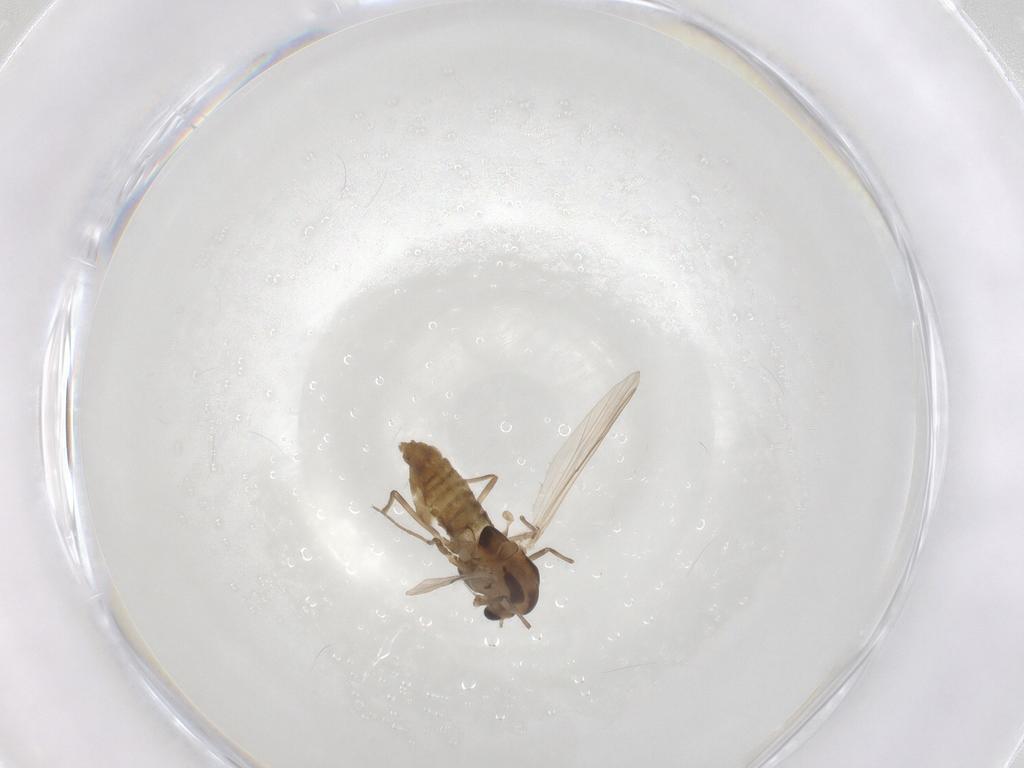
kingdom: Animalia
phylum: Arthropoda
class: Insecta
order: Diptera
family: Chironomidae
